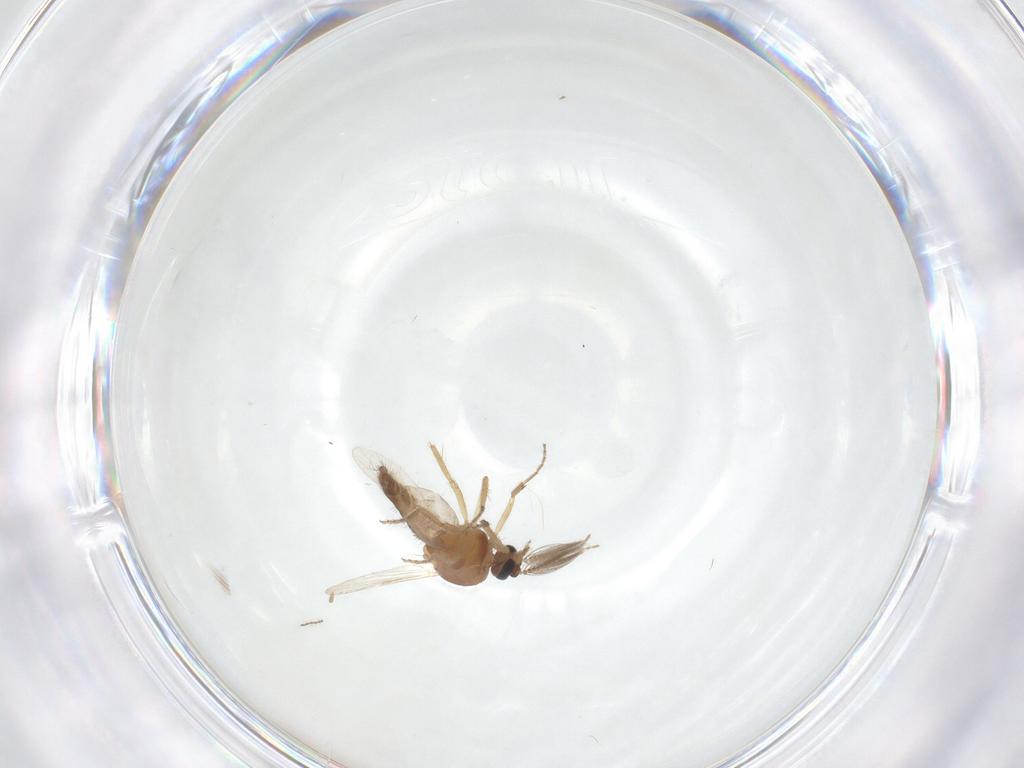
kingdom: Animalia
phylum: Arthropoda
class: Insecta
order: Diptera
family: Ceratopogonidae
